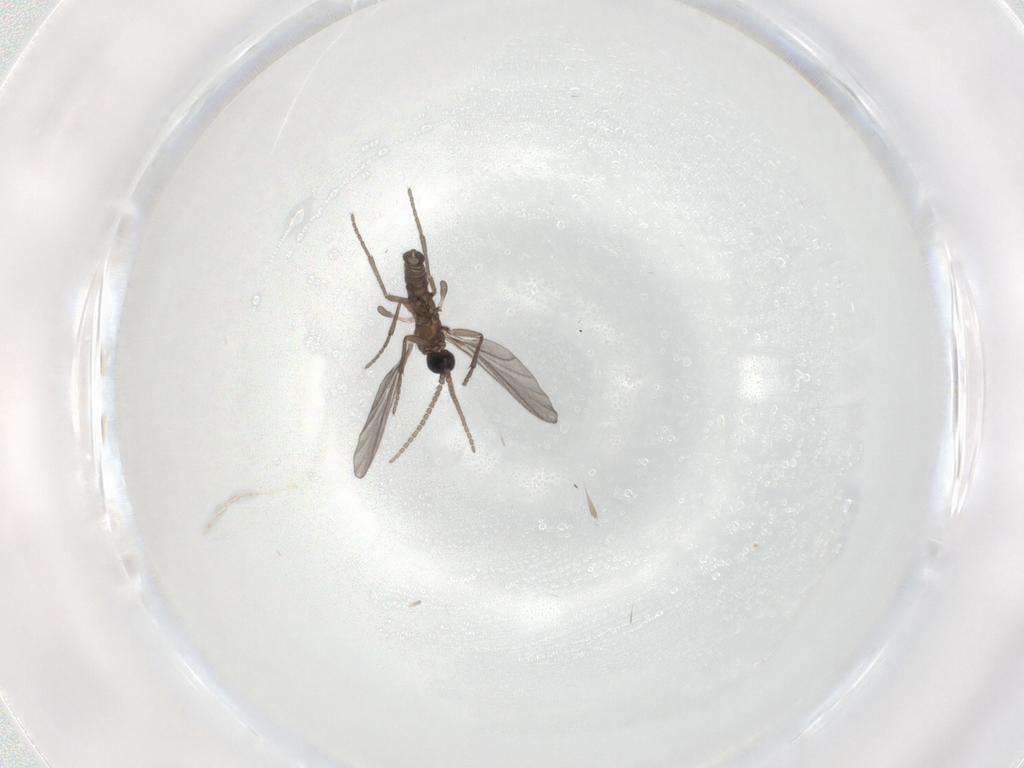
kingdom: Animalia
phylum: Arthropoda
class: Insecta
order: Diptera
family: Sciaridae
